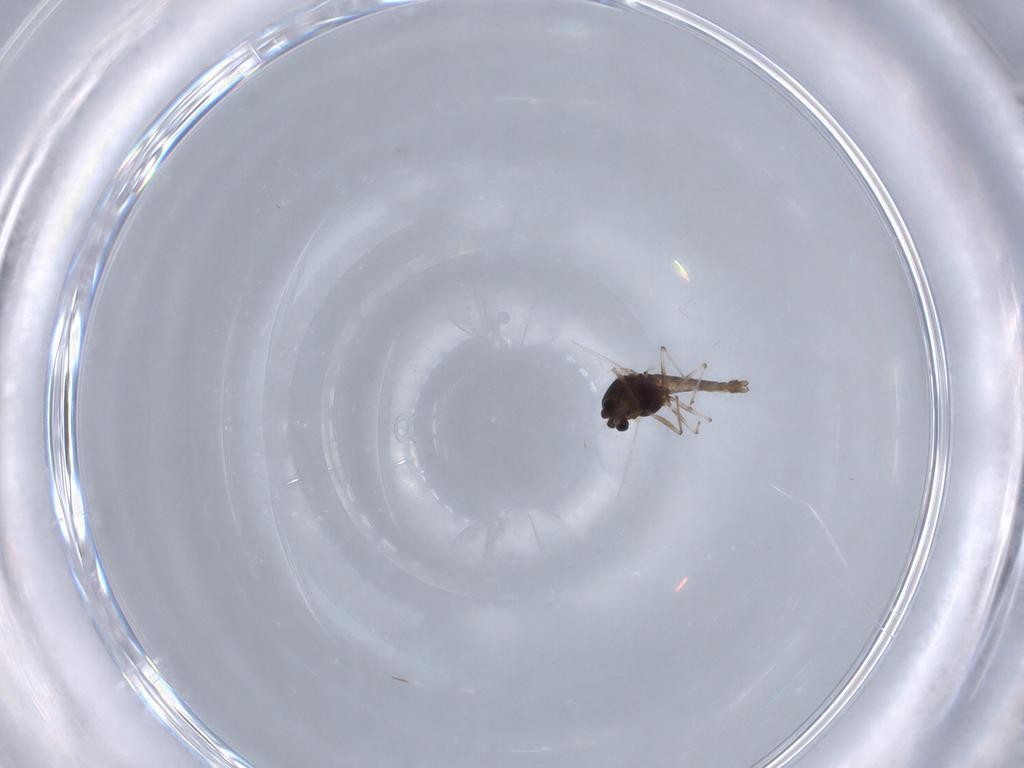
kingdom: Animalia
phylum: Arthropoda
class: Insecta
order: Diptera
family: Chironomidae
